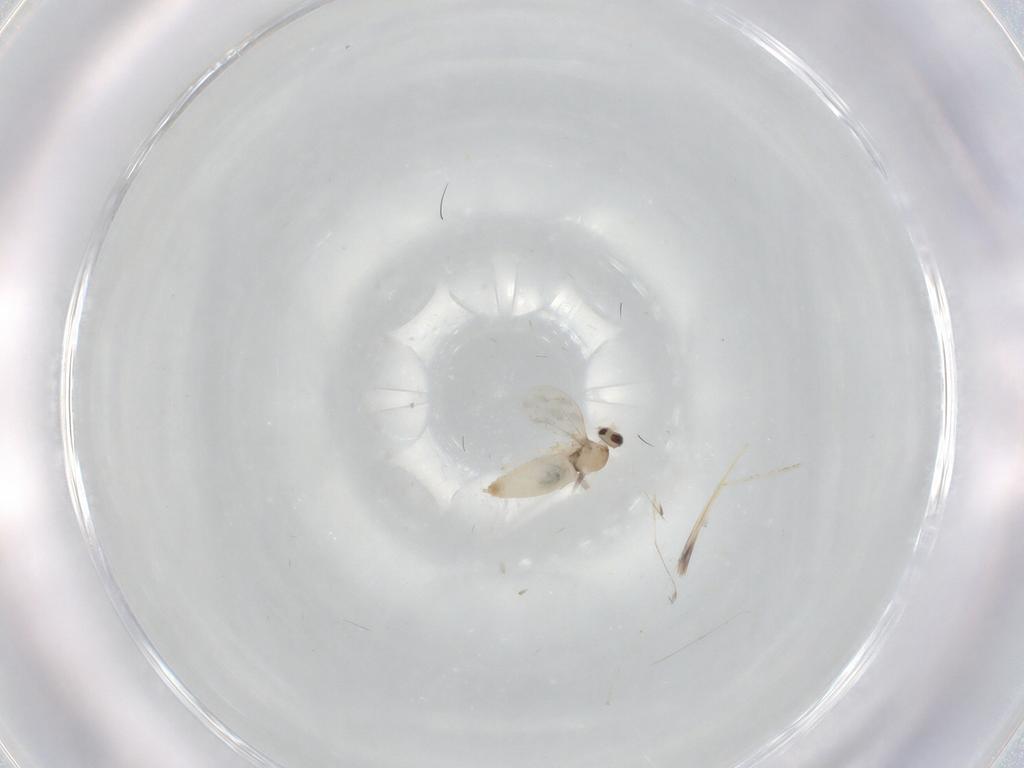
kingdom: Animalia
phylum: Arthropoda
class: Insecta
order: Diptera
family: Cecidomyiidae
